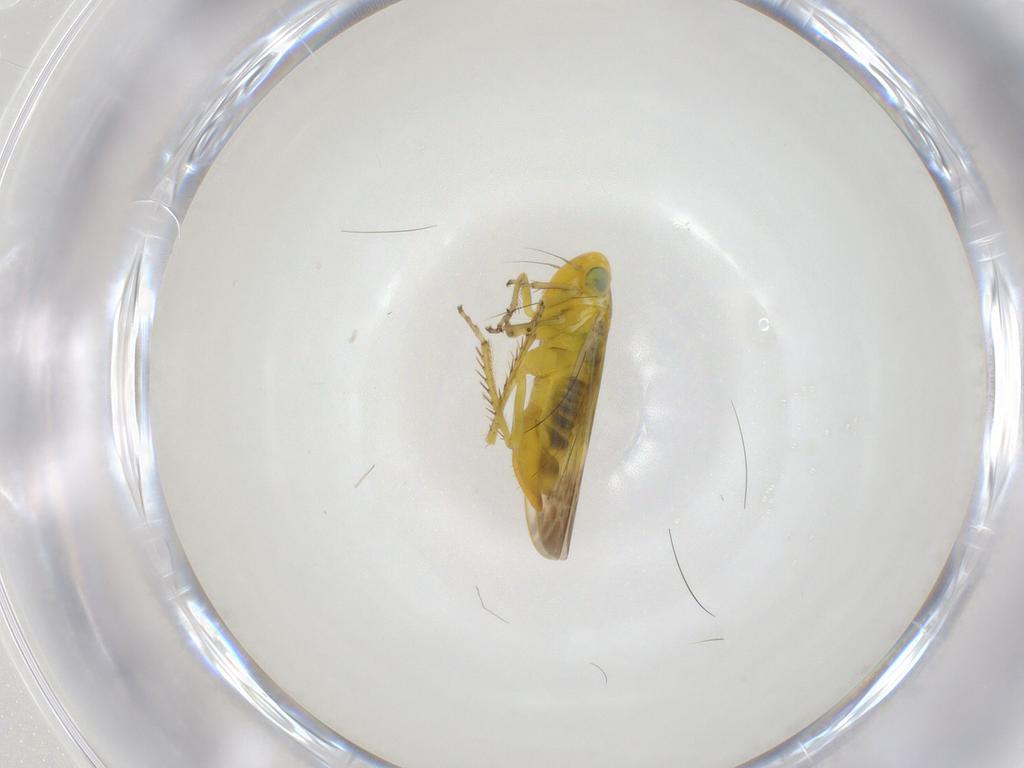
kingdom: Animalia
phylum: Arthropoda
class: Insecta
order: Hemiptera
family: Cicadellidae
